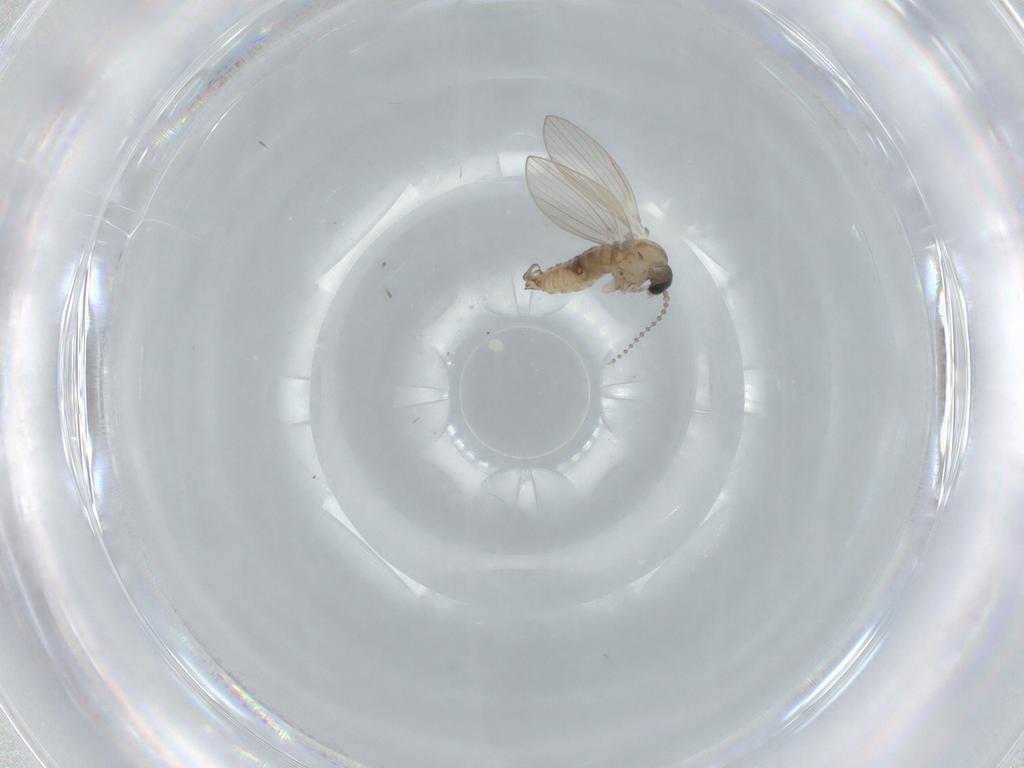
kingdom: Animalia
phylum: Arthropoda
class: Insecta
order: Diptera
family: Psychodidae
